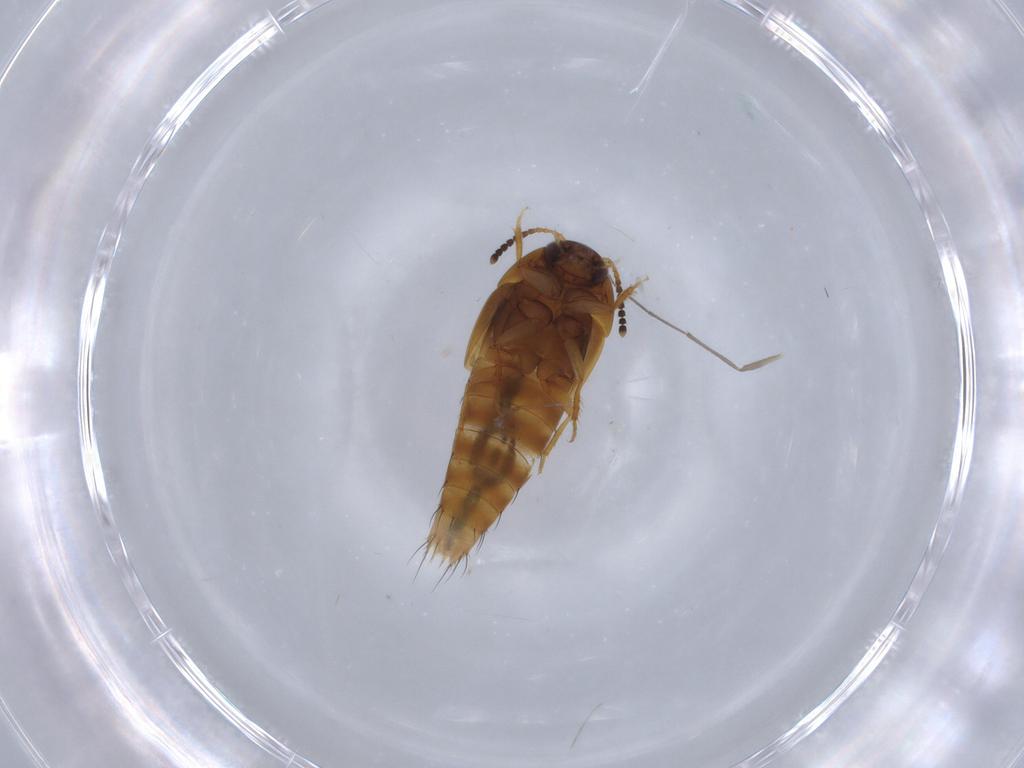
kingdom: Animalia
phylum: Arthropoda
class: Insecta
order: Coleoptera
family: Staphylinidae
